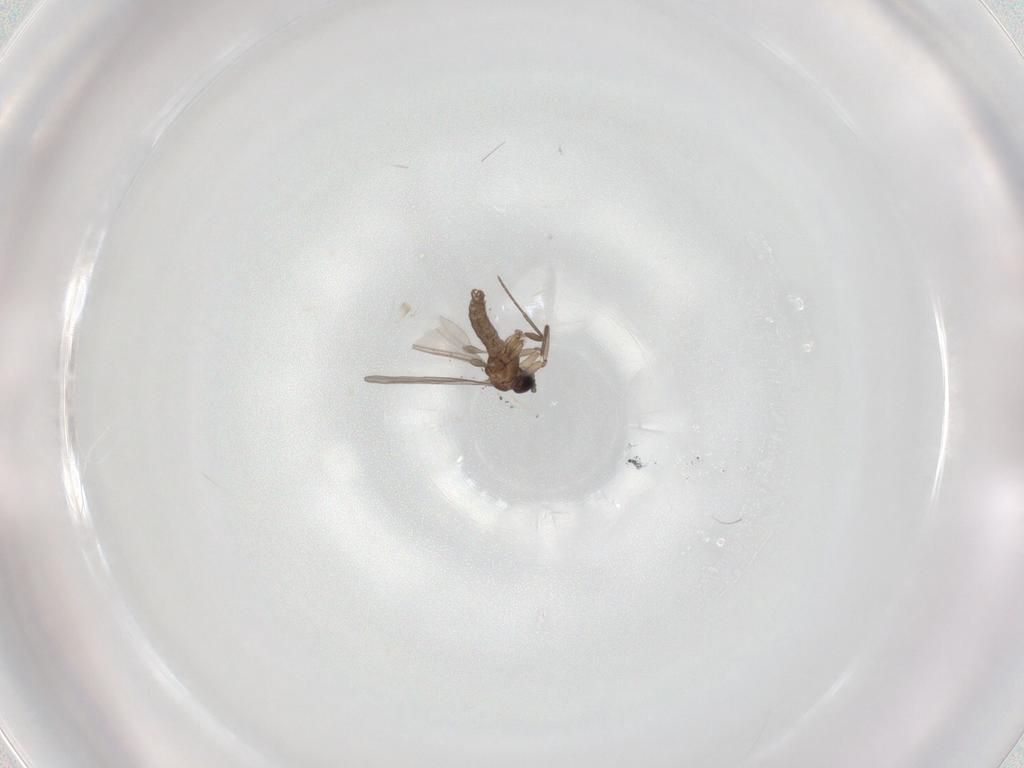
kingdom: Animalia
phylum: Arthropoda
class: Insecta
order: Diptera
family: Sciaridae
